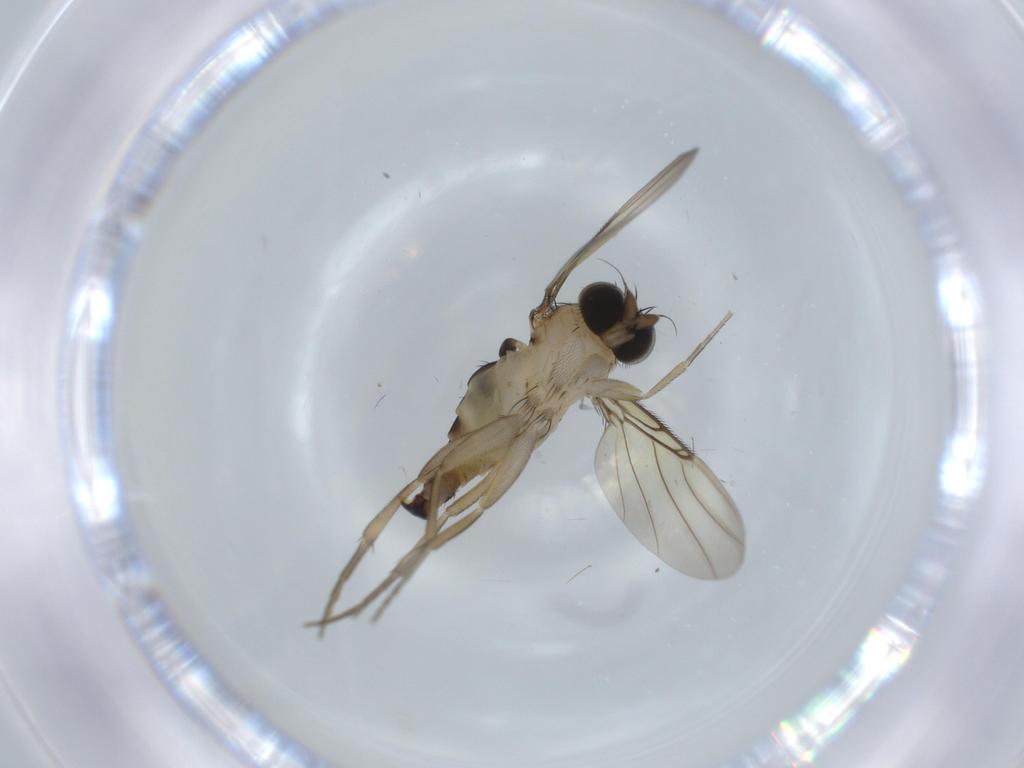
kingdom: Animalia
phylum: Arthropoda
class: Insecta
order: Diptera
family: Phoridae
